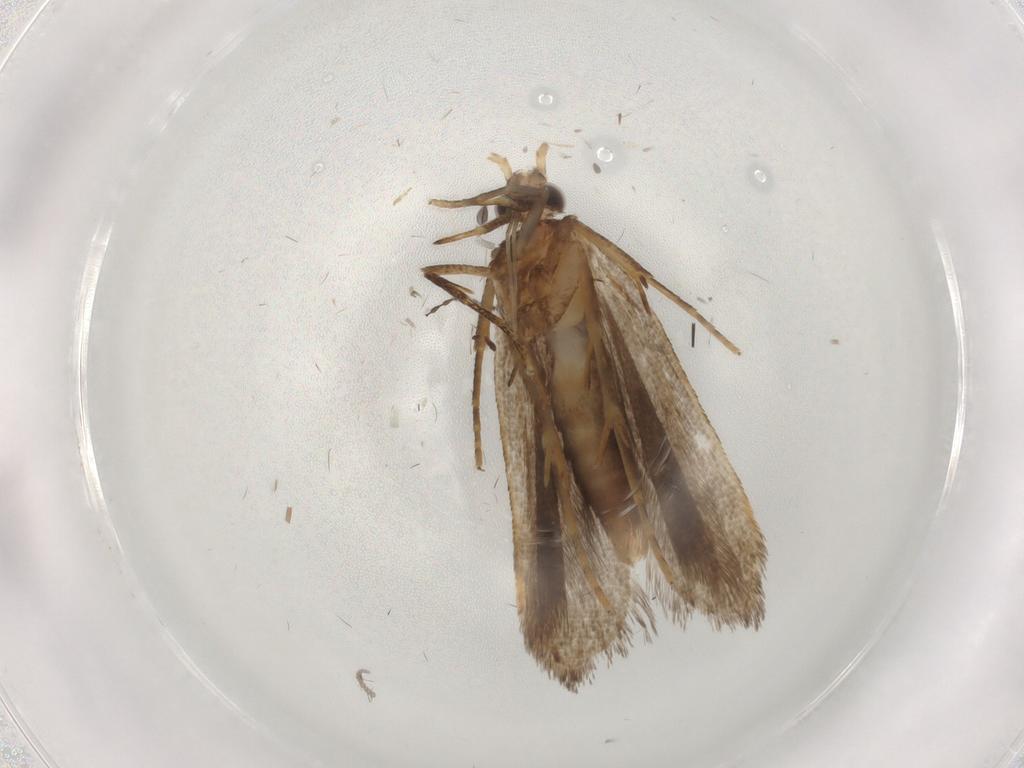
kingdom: Animalia
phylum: Arthropoda
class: Insecta
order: Lepidoptera
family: Gelechiidae
